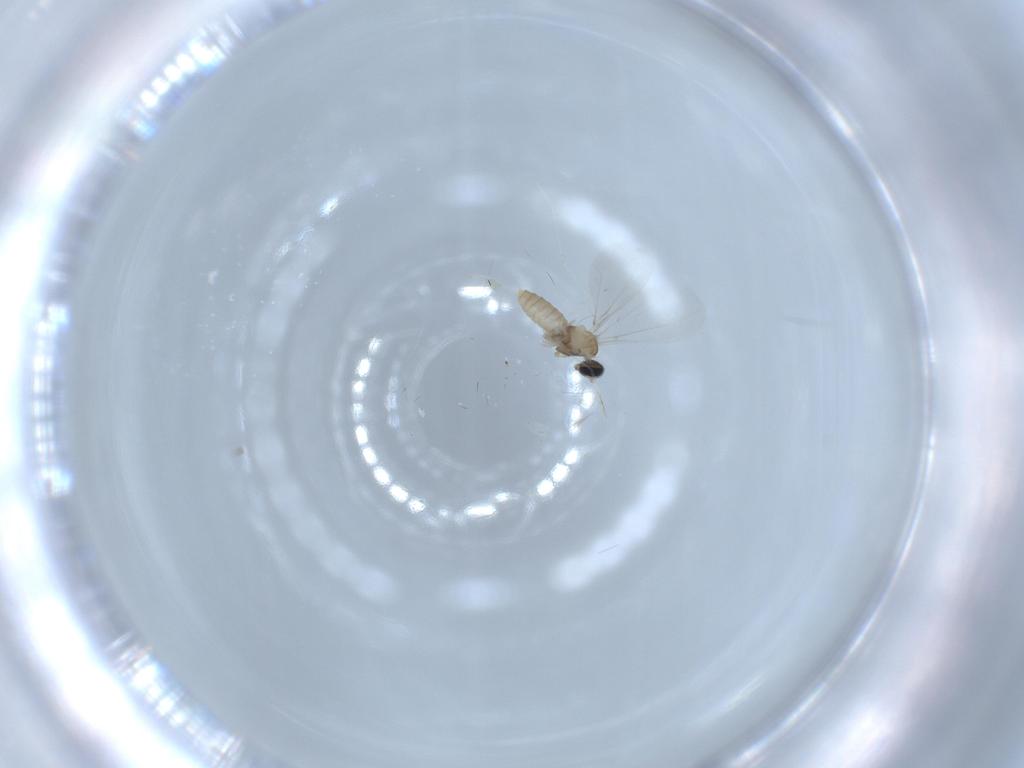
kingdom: Animalia
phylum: Arthropoda
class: Insecta
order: Diptera
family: Cecidomyiidae
